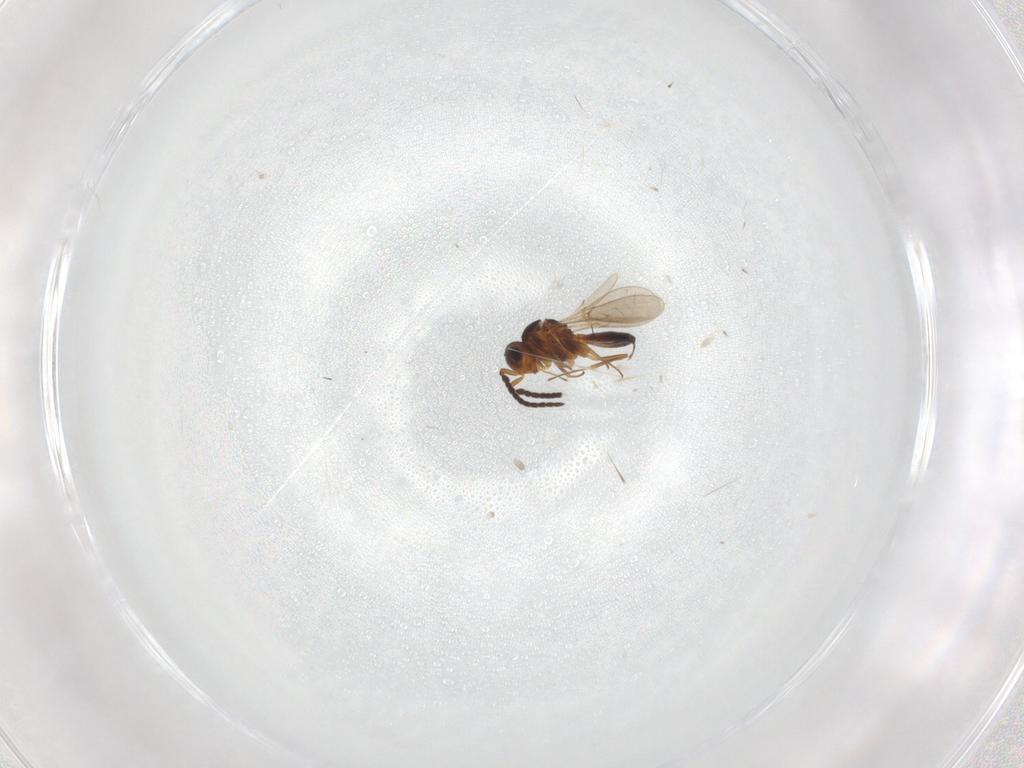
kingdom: Animalia
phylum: Arthropoda
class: Insecta
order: Hymenoptera
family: Scelionidae
